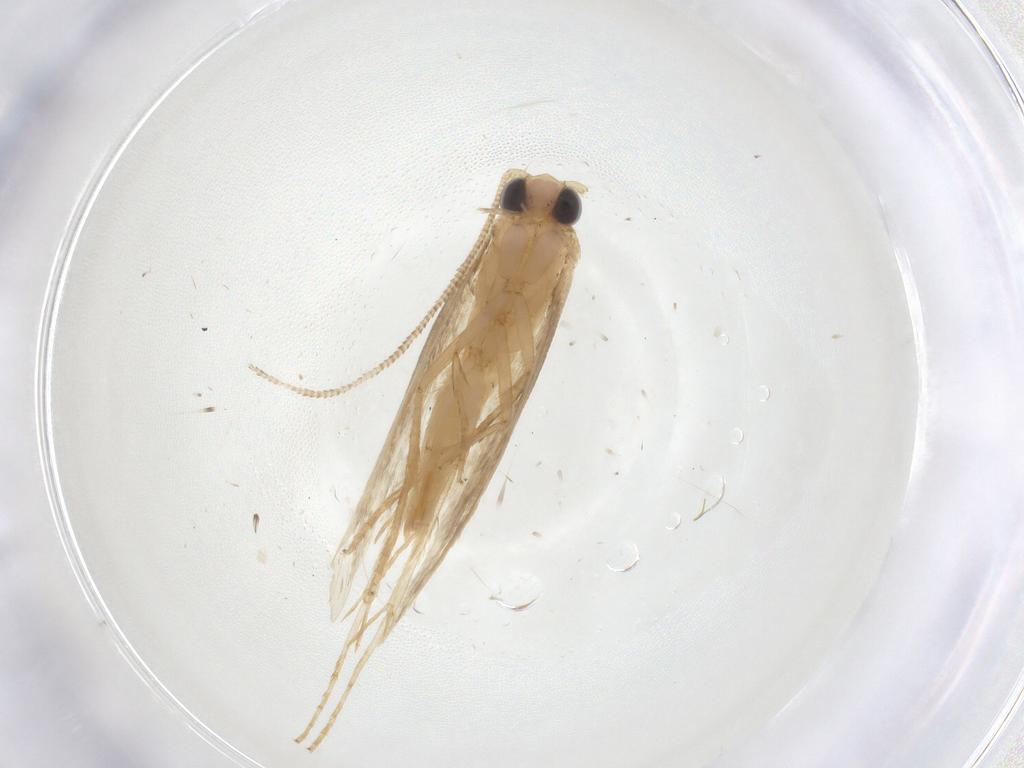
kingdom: Animalia
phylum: Arthropoda
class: Insecta
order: Lepidoptera
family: Tineidae
